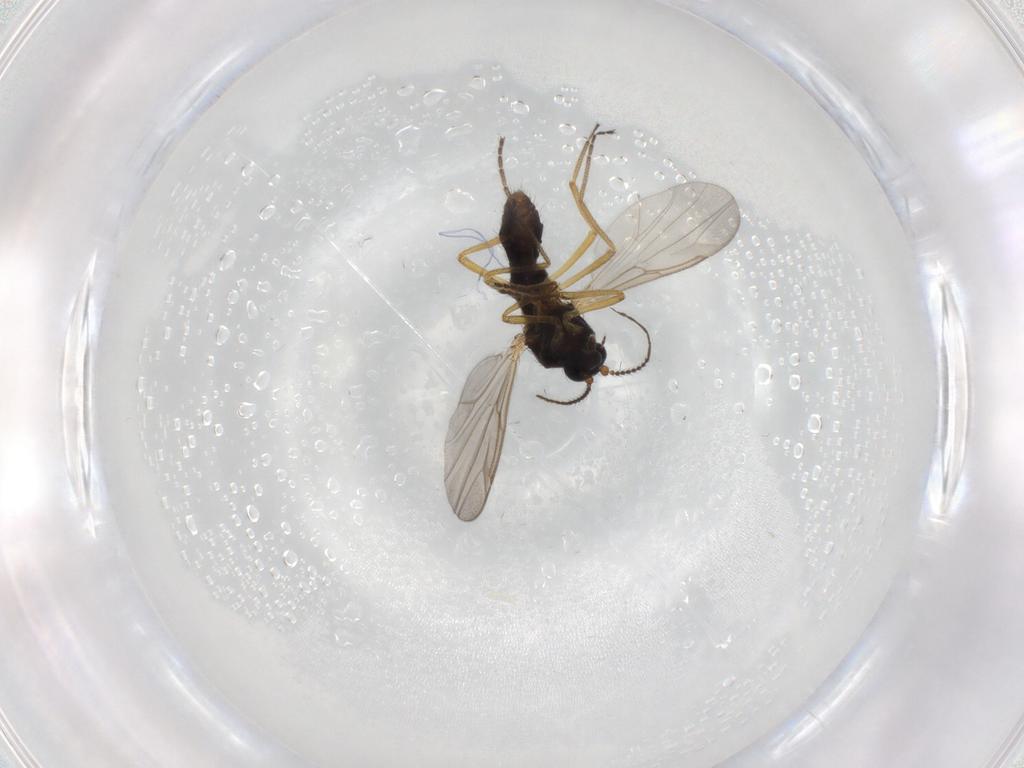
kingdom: Animalia
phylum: Arthropoda
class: Insecta
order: Diptera
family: Ceratopogonidae
